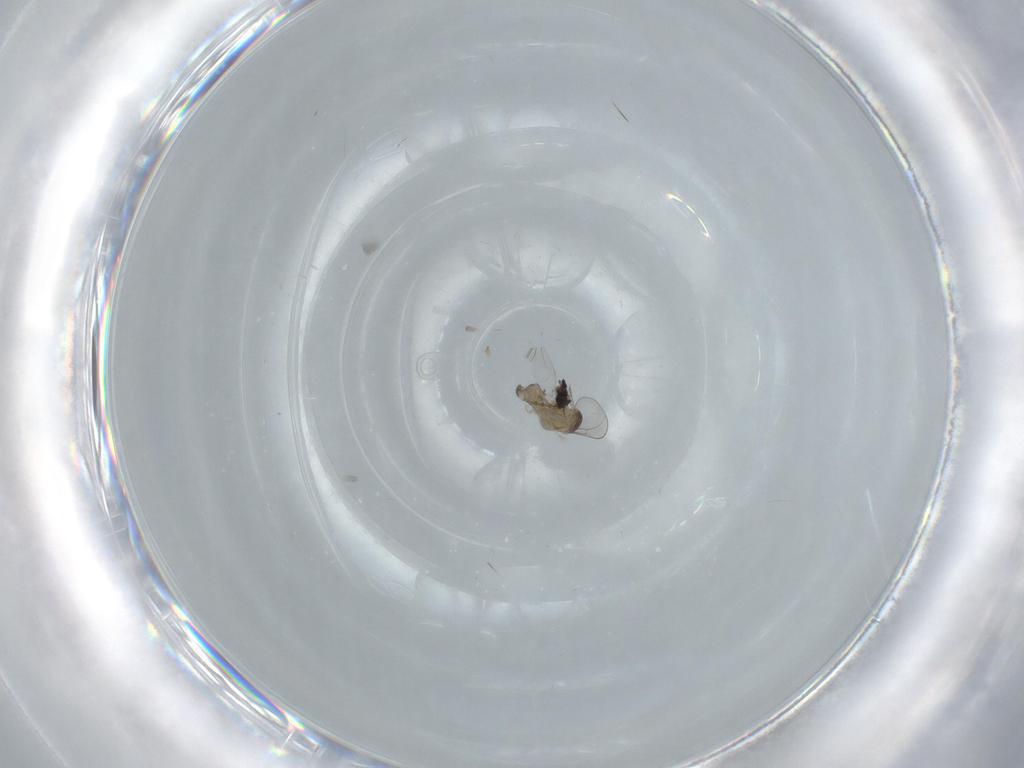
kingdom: Animalia
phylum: Arthropoda
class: Insecta
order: Diptera
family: Cecidomyiidae
